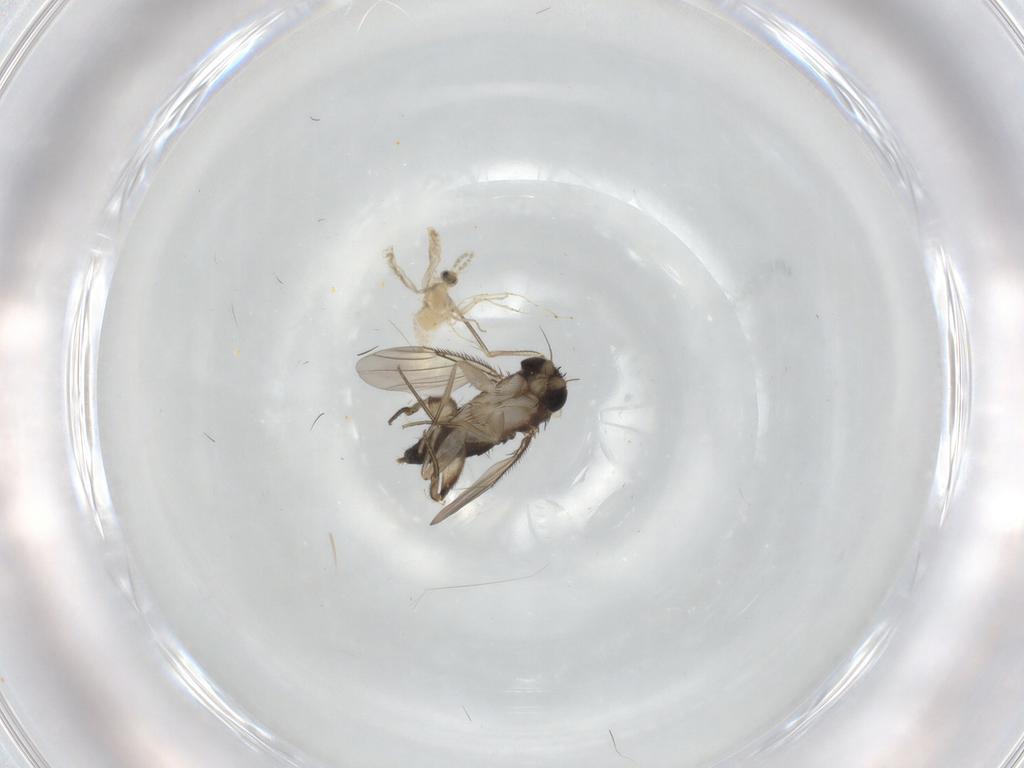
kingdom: Animalia
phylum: Arthropoda
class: Insecta
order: Diptera
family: Phoridae
